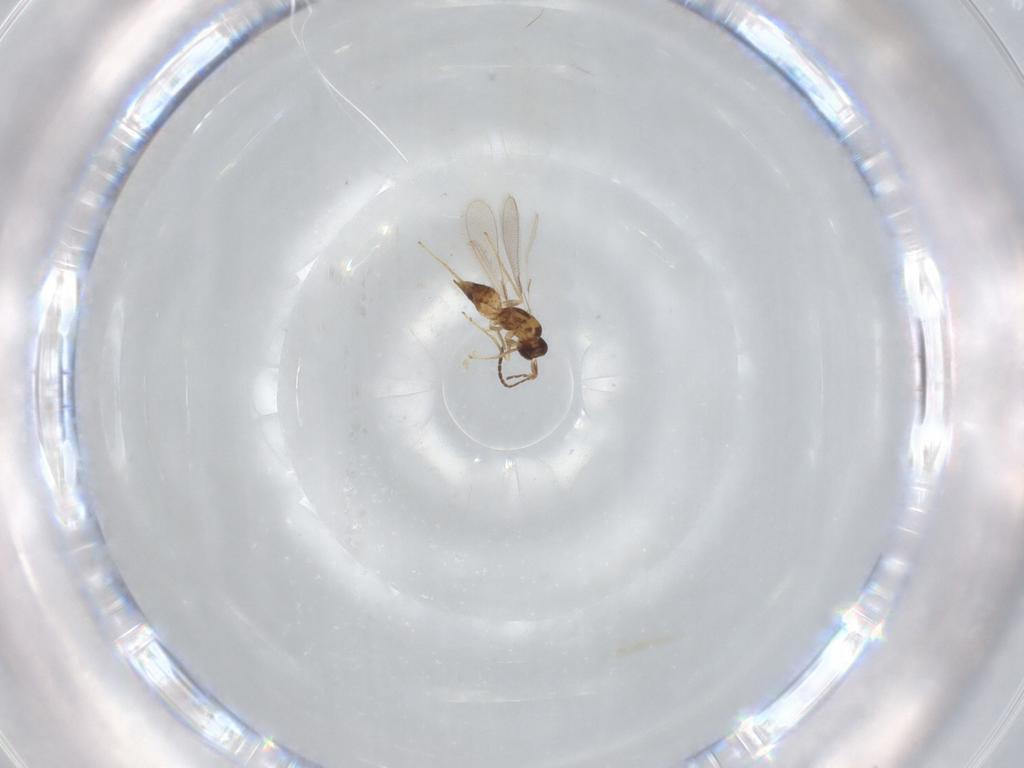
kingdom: Animalia
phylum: Arthropoda
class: Insecta
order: Hymenoptera
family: Mymaridae
